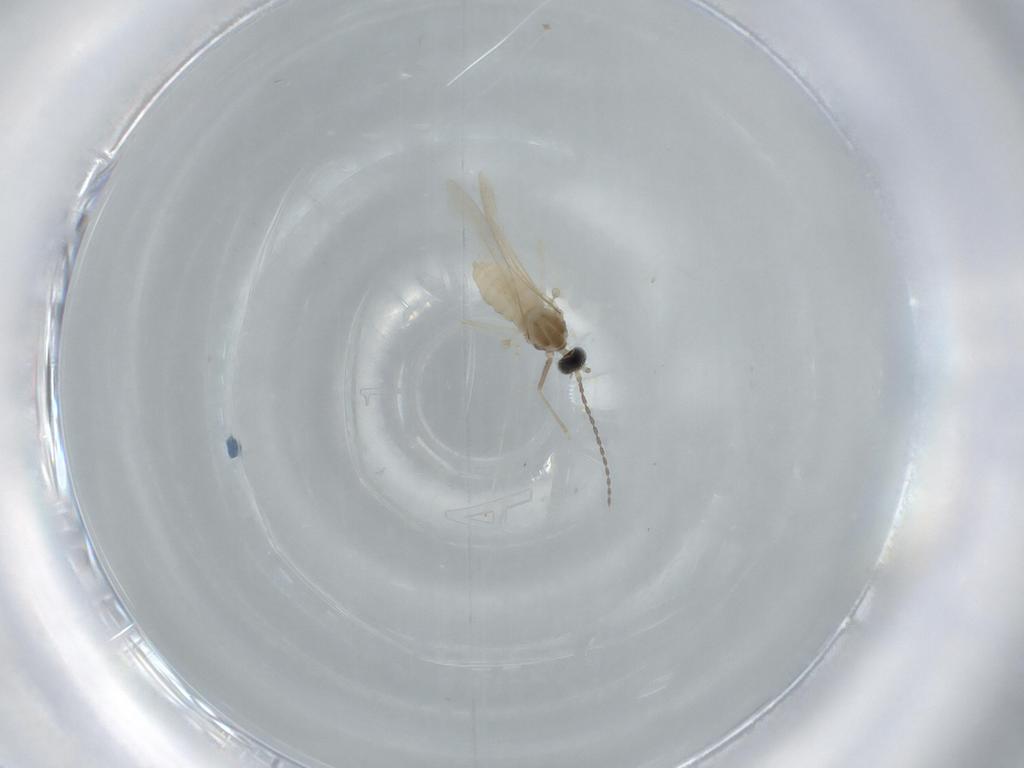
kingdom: Animalia
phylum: Arthropoda
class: Insecta
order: Diptera
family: Cecidomyiidae
